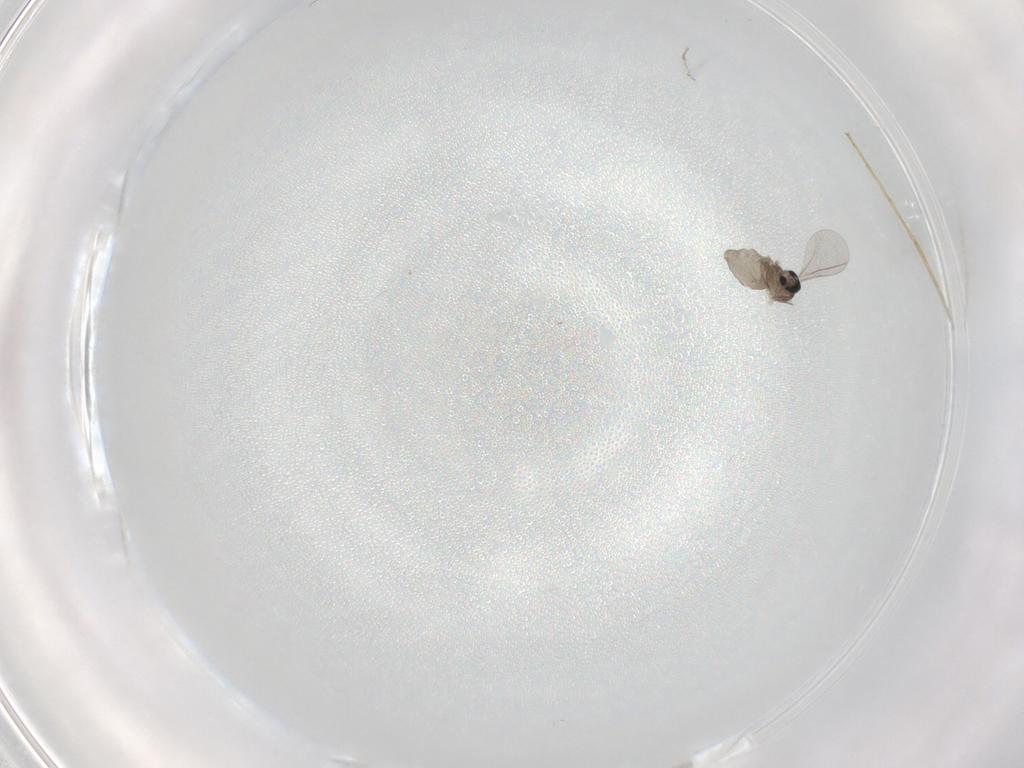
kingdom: Animalia
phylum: Arthropoda
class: Insecta
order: Diptera
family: Cecidomyiidae
